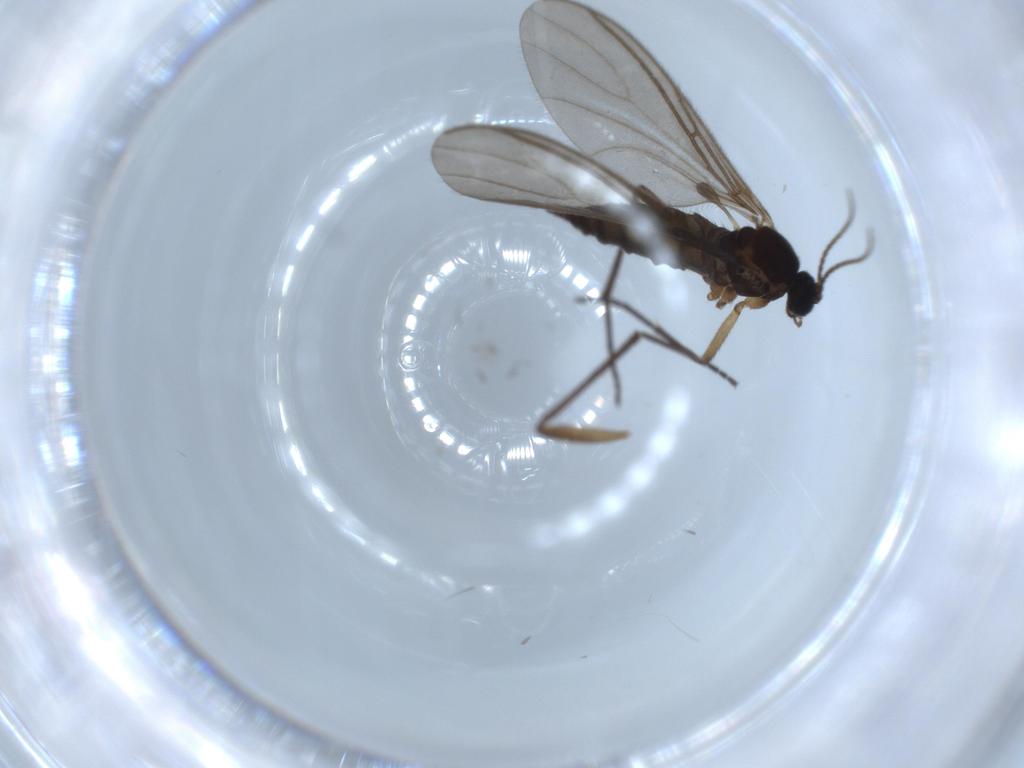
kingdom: Animalia
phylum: Arthropoda
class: Insecta
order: Diptera
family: Sciaridae
